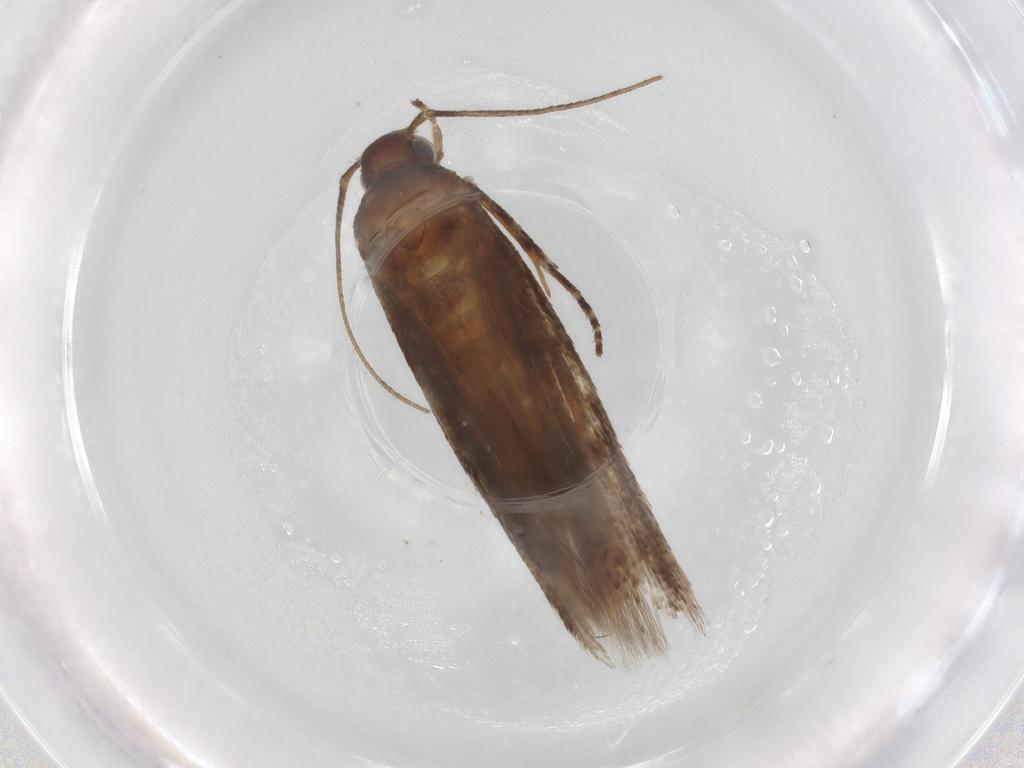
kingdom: Animalia
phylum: Arthropoda
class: Insecta
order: Lepidoptera
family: Gelechiidae
